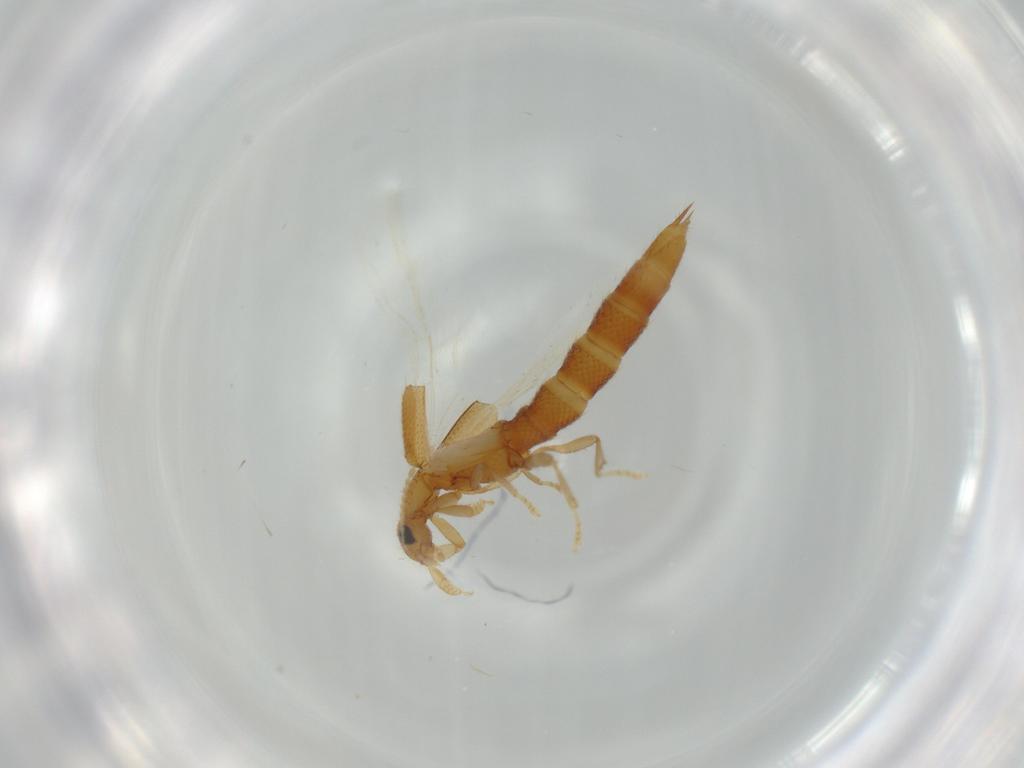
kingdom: Animalia
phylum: Arthropoda
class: Insecta
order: Coleoptera
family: Staphylinidae
